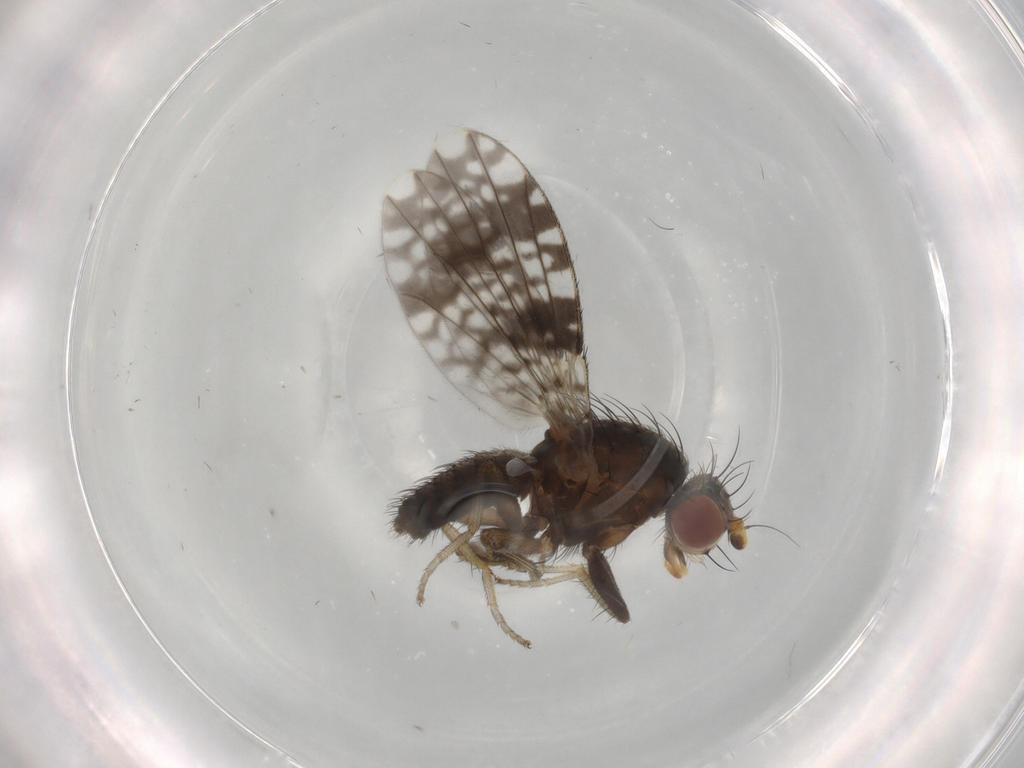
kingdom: Animalia
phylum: Arthropoda
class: Insecta
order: Diptera
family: Tephritidae
